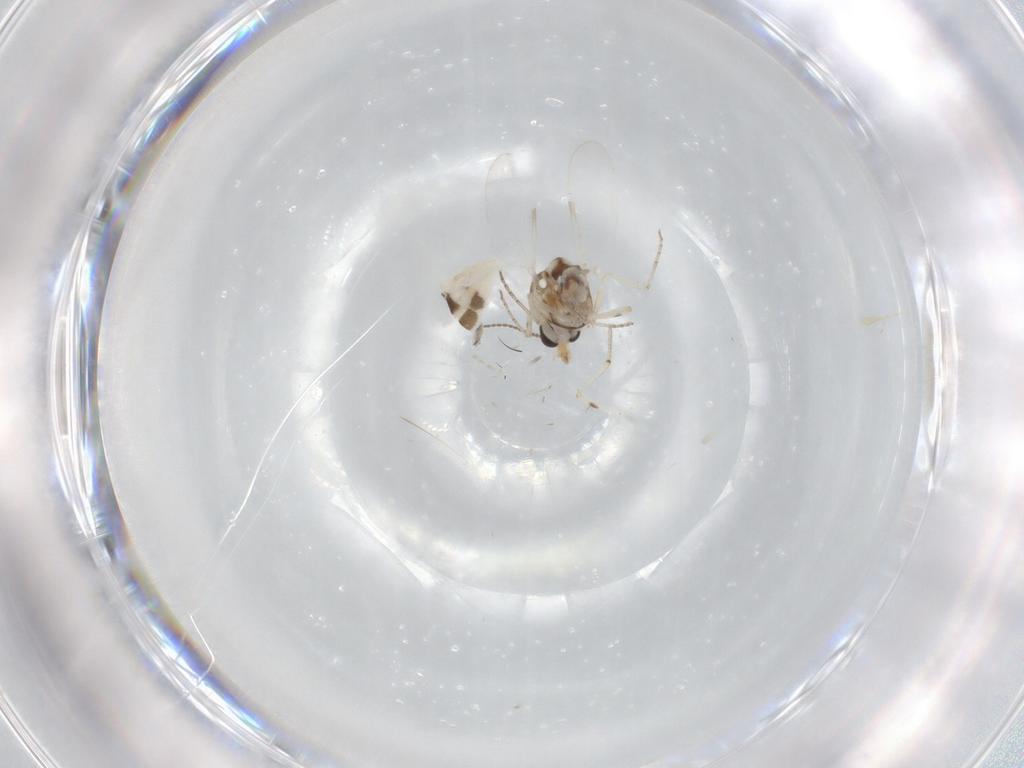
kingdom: Animalia
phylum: Arthropoda
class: Insecta
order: Diptera
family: Ceratopogonidae
